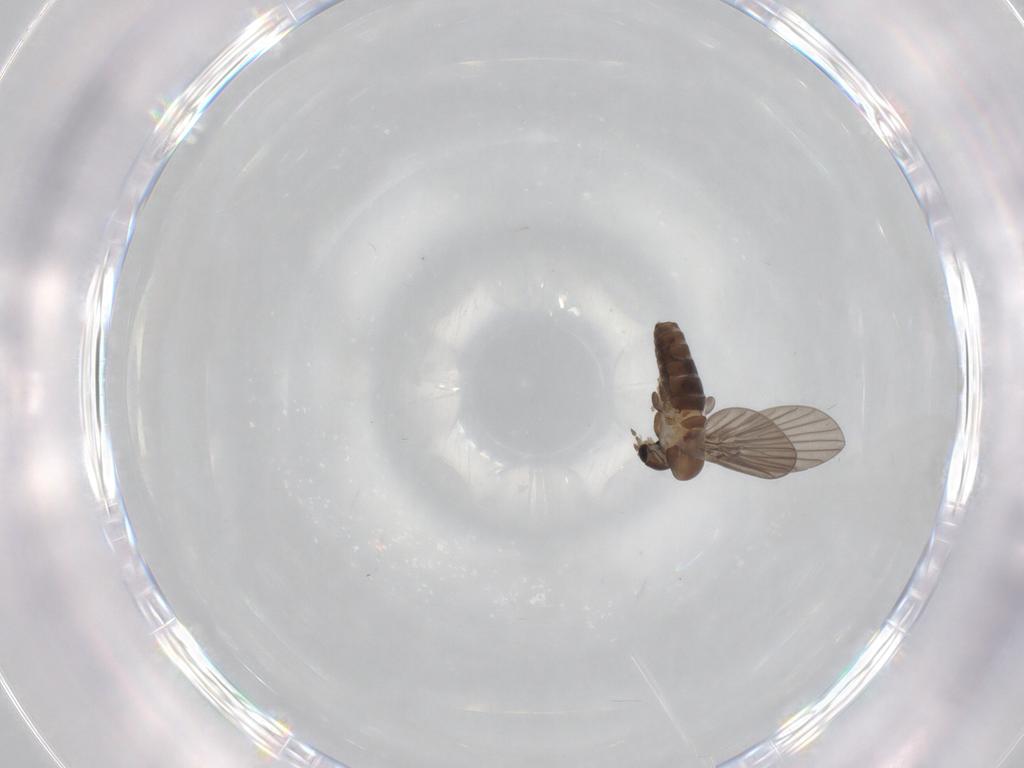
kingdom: Animalia
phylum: Arthropoda
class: Insecta
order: Diptera
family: Psychodidae
